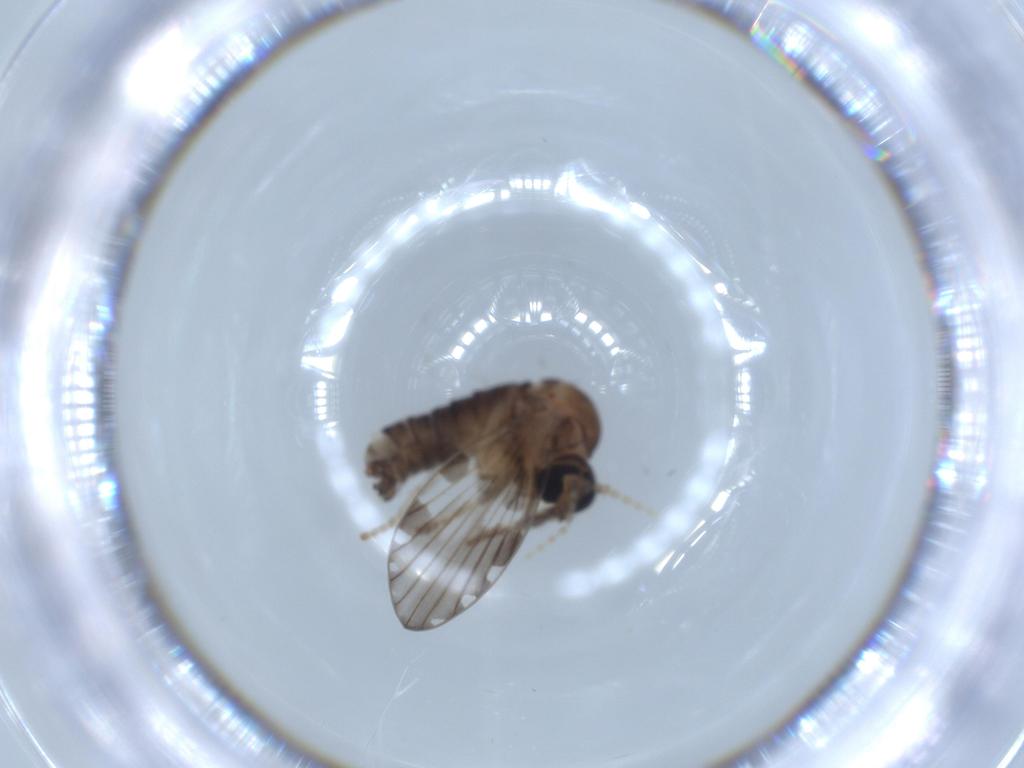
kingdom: Animalia
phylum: Arthropoda
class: Insecta
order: Diptera
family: Psychodidae
